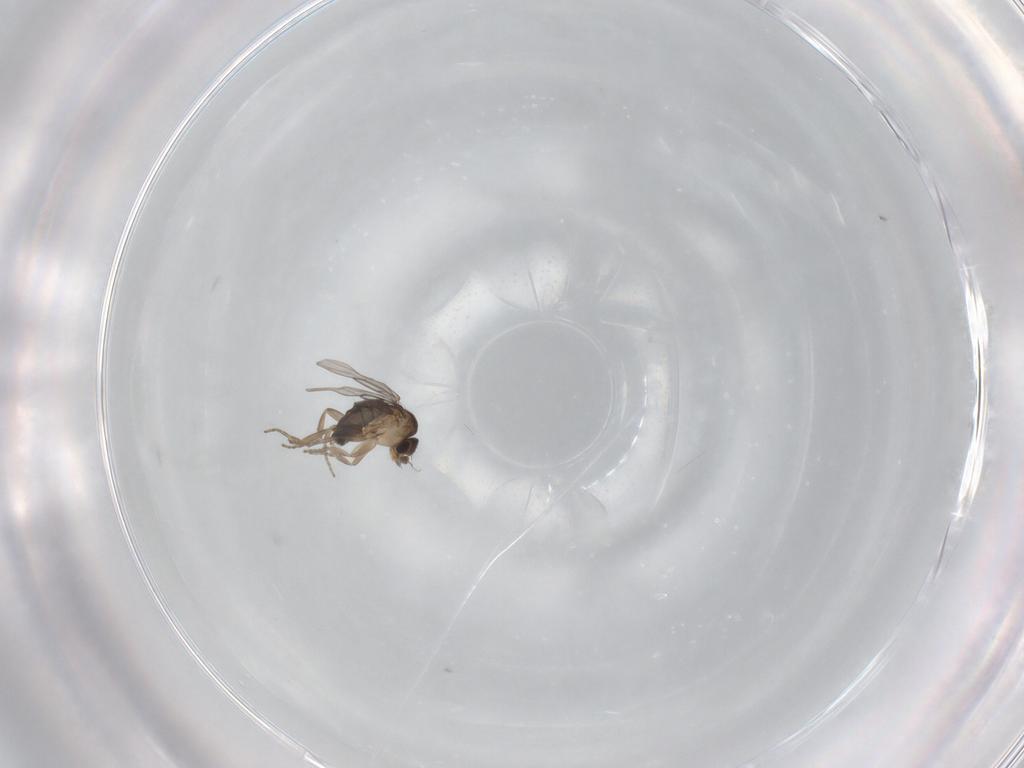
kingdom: Animalia
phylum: Arthropoda
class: Insecta
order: Diptera
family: Phoridae
